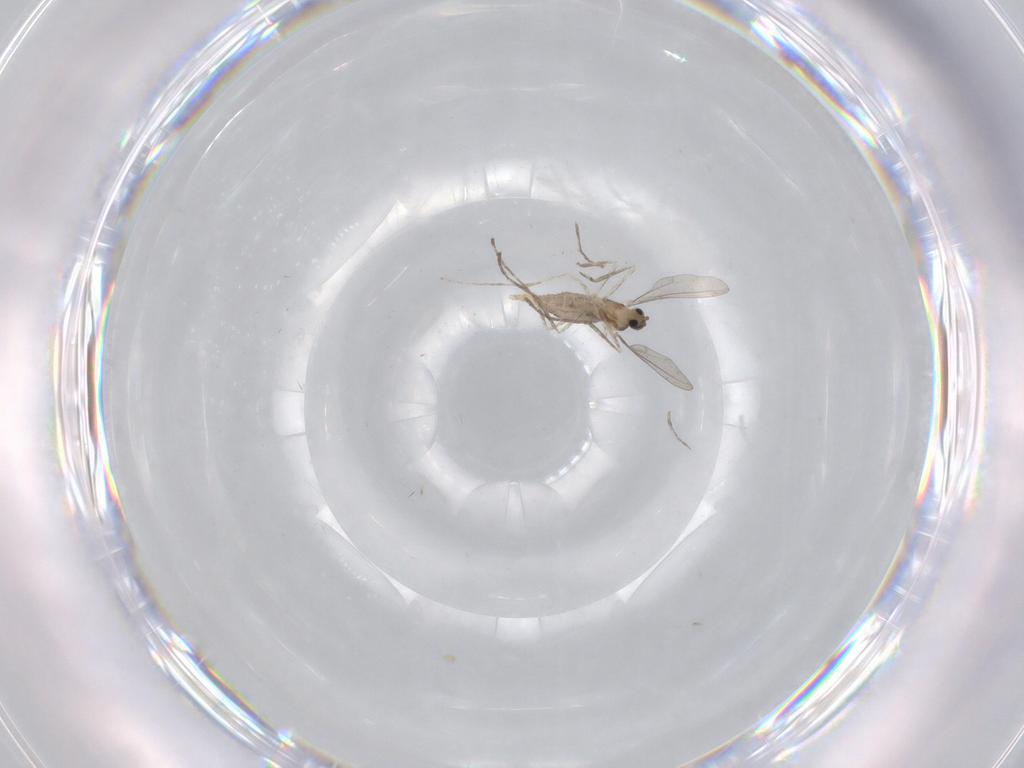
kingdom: Animalia
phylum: Arthropoda
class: Insecta
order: Diptera
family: Cecidomyiidae
